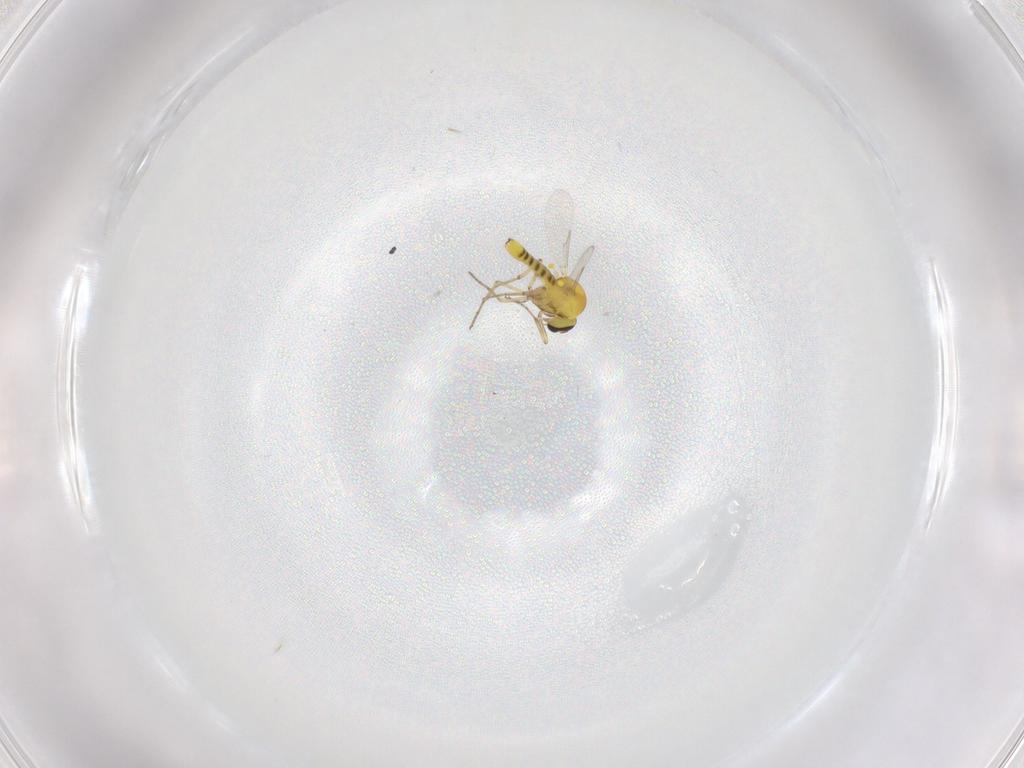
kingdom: Animalia
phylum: Arthropoda
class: Insecta
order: Diptera
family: Ceratopogonidae
